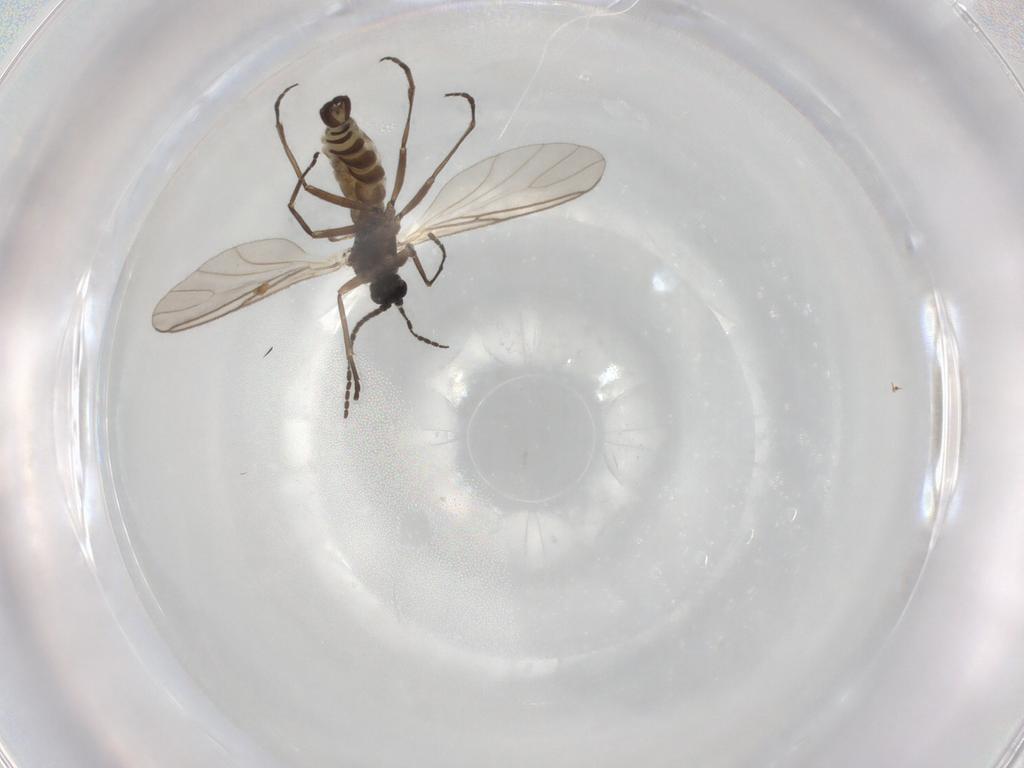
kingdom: Animalia
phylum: Arthropoda
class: Insecta
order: Diptera
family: Sciaridae
